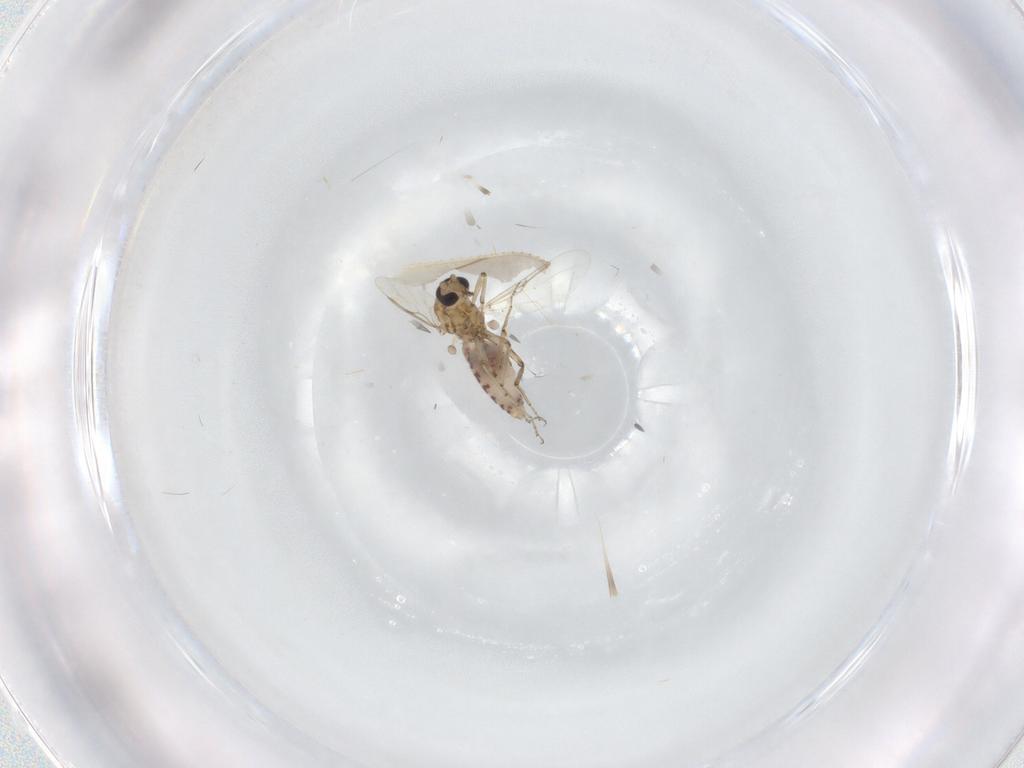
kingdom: Animalia
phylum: Arthropoda
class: Insecta
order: Diptera
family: Ceratopogonidae
